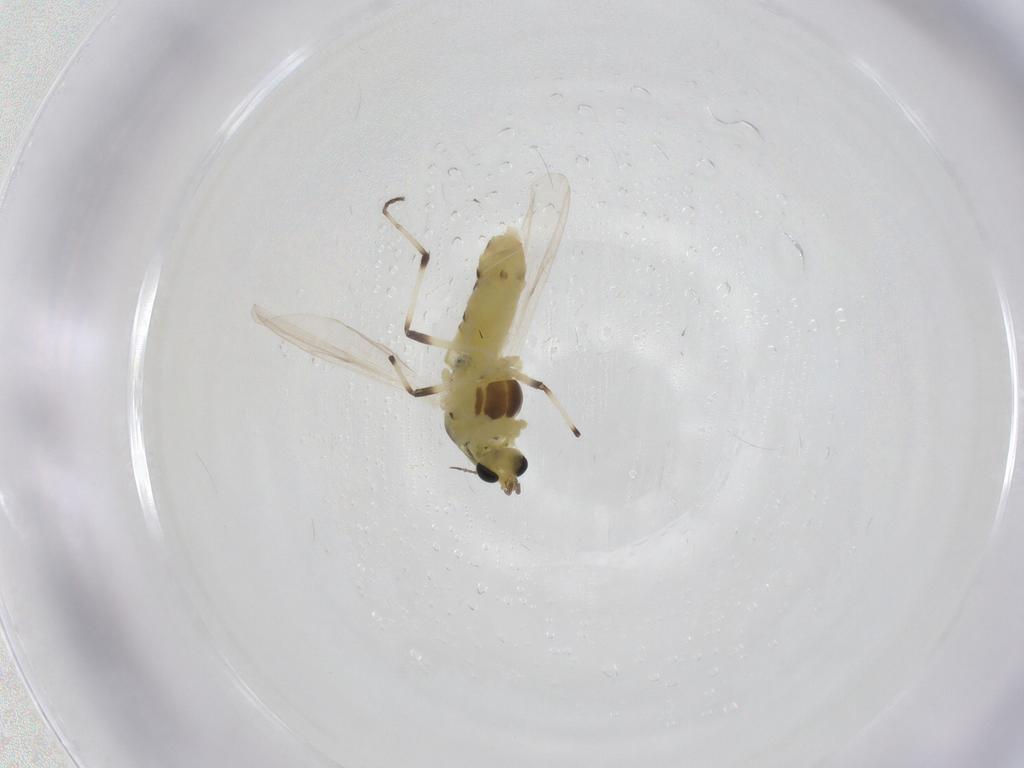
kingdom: Animalia
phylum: Arthropoda
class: Insecta
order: Diptera
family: Chironomidae
